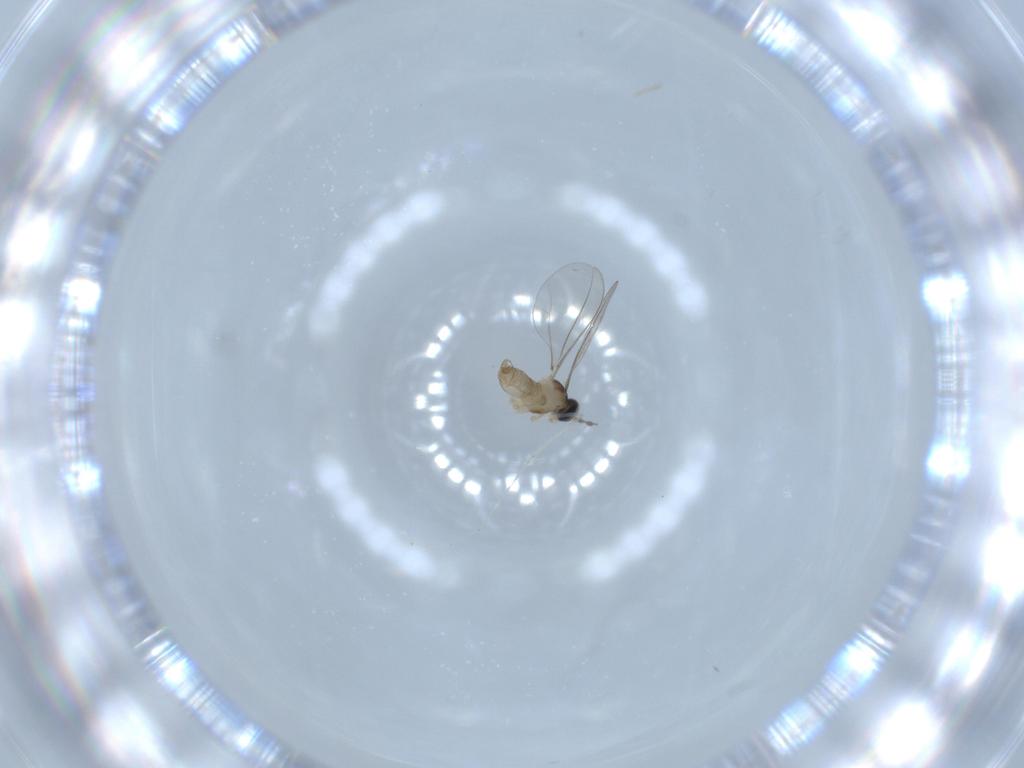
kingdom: Animalia
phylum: Arthropoda
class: Insecta
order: Diptera
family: Cecidomyiidae
